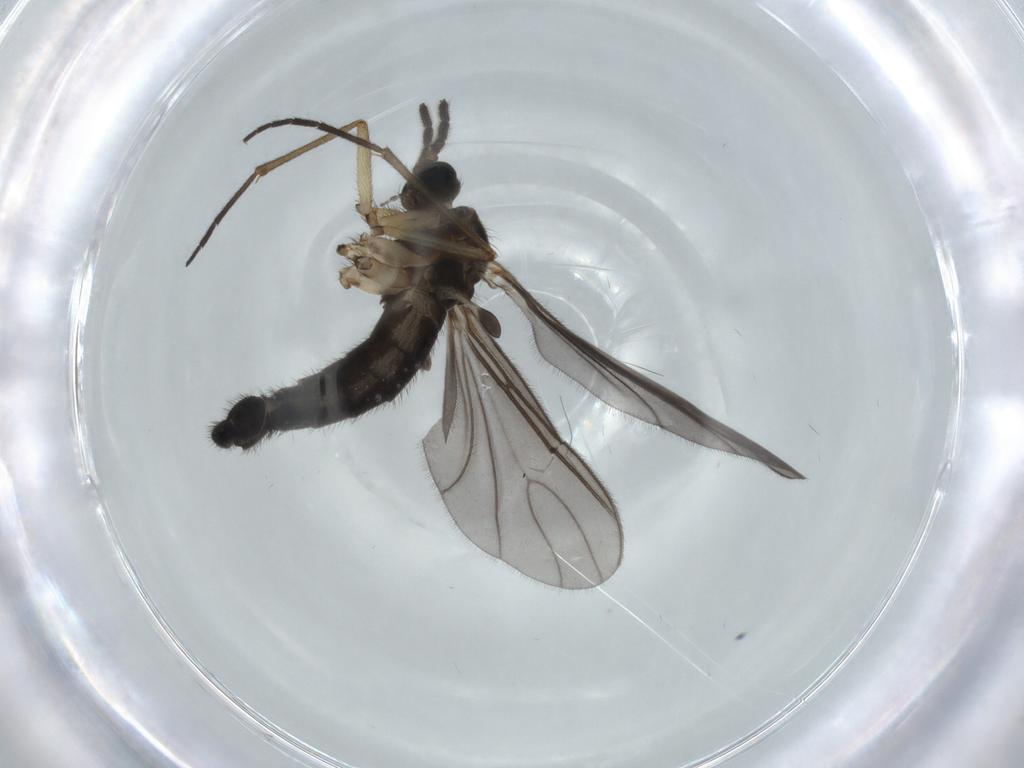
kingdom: Animalia
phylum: Arthropoda
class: Insecta
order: Diptera
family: Sciaridae
